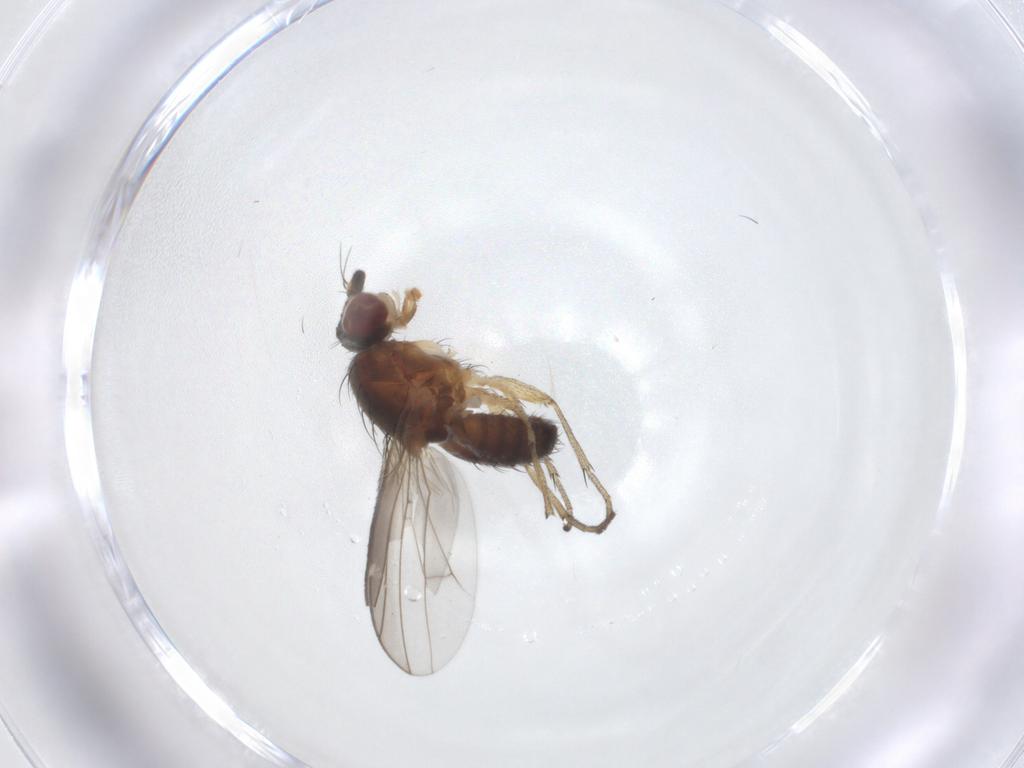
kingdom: Animalia
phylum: Arthropoda
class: Insecta
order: Diptera
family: Heleomyzidae
